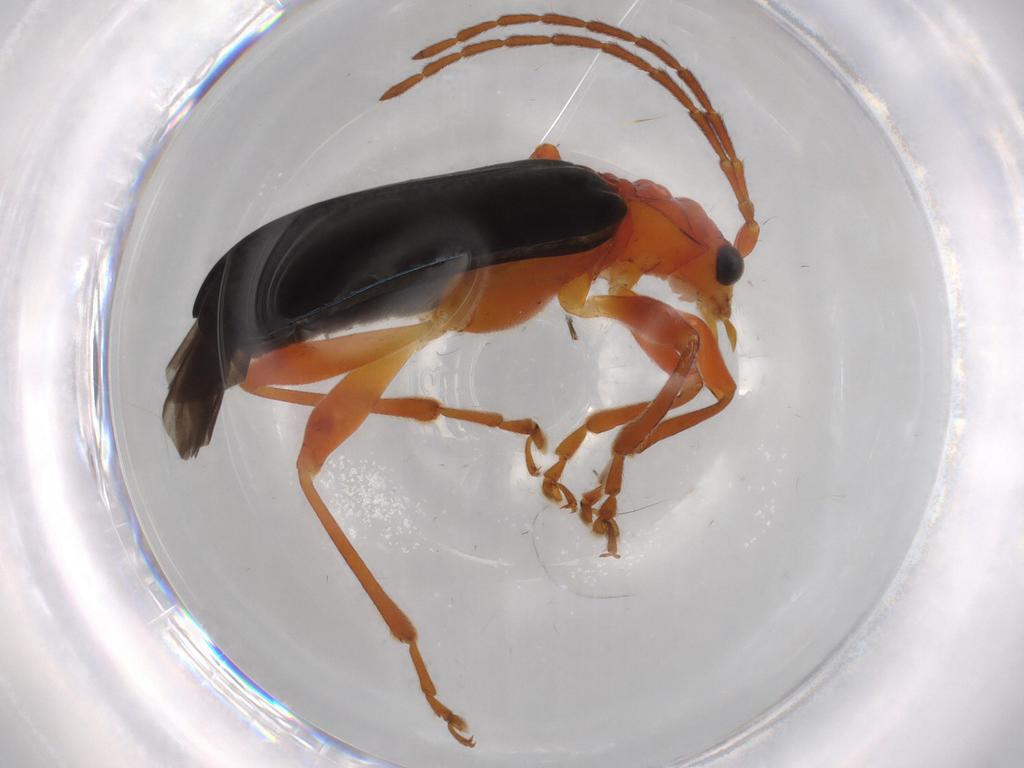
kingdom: Animalia
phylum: Arthropoda
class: Insecta
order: Coleoptera
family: Chrysomelidae
